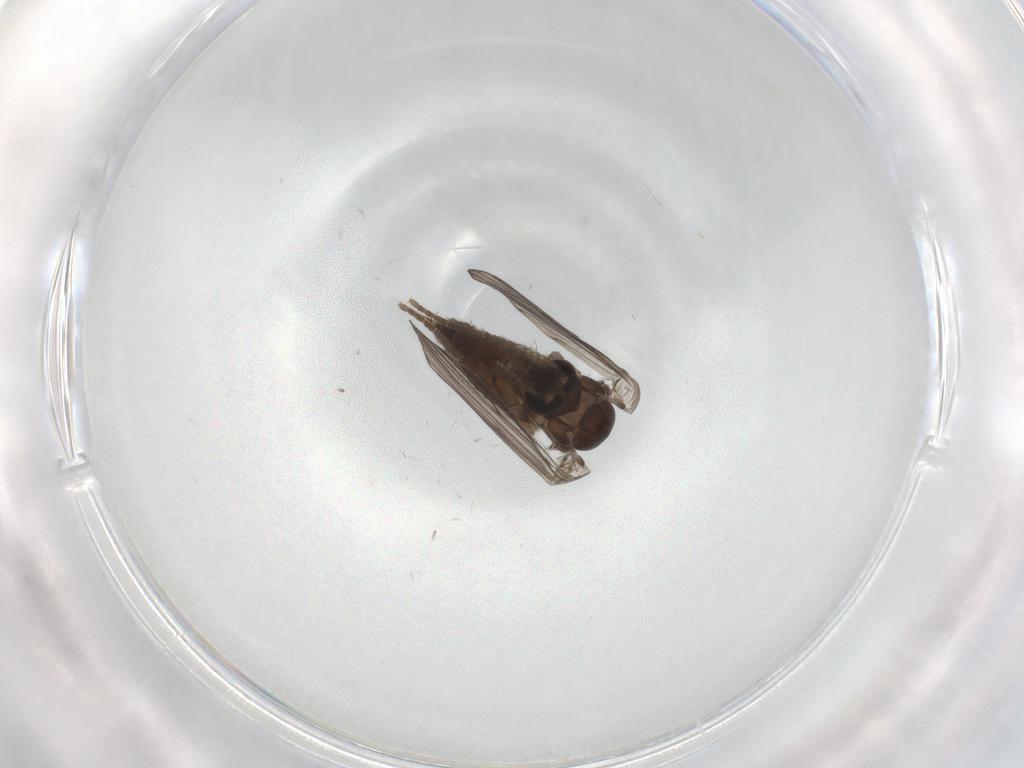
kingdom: Animalia
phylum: Arthropoda
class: Insecta
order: Diptera
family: Psychodidae
